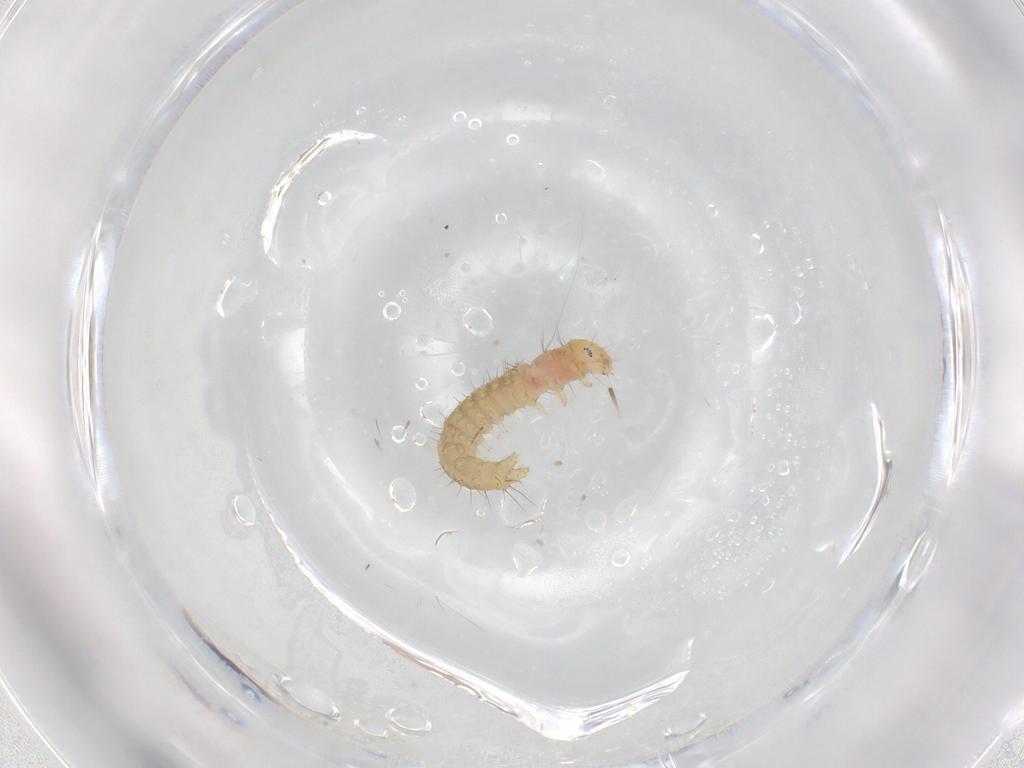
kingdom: Animalia
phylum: Arthropoda
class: Insecta
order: Lepidoptera
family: Gelechiidae
